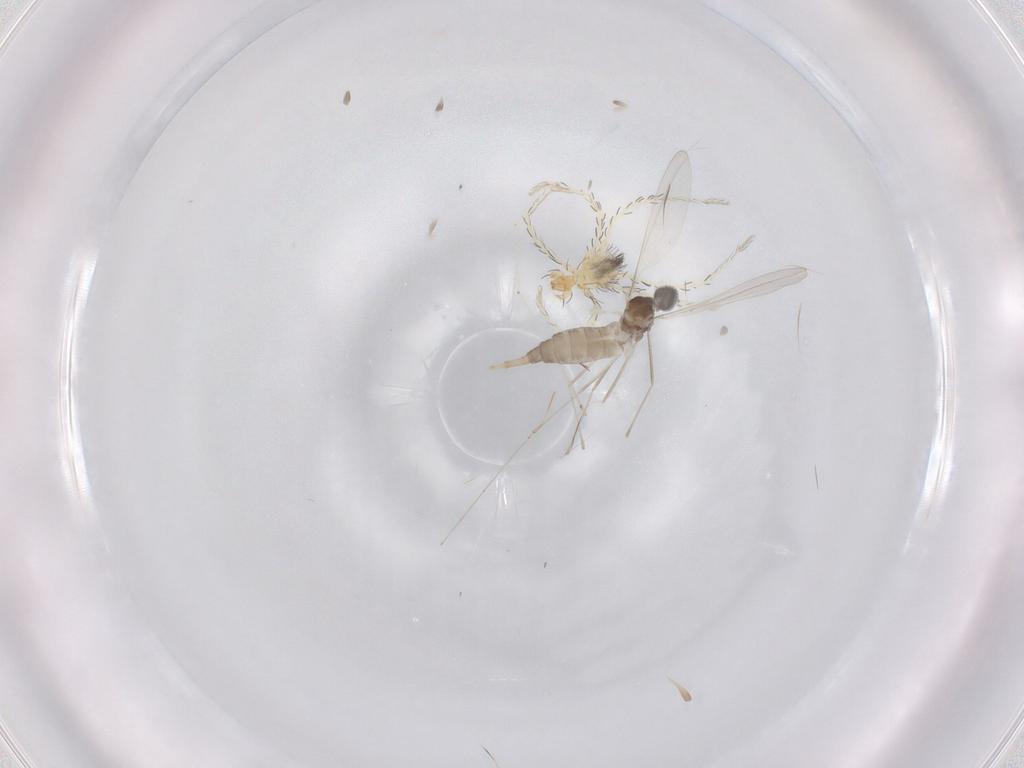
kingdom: Animalia
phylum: Arthropoda
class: Insecta
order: Diptera
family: Cecidomyiidae
